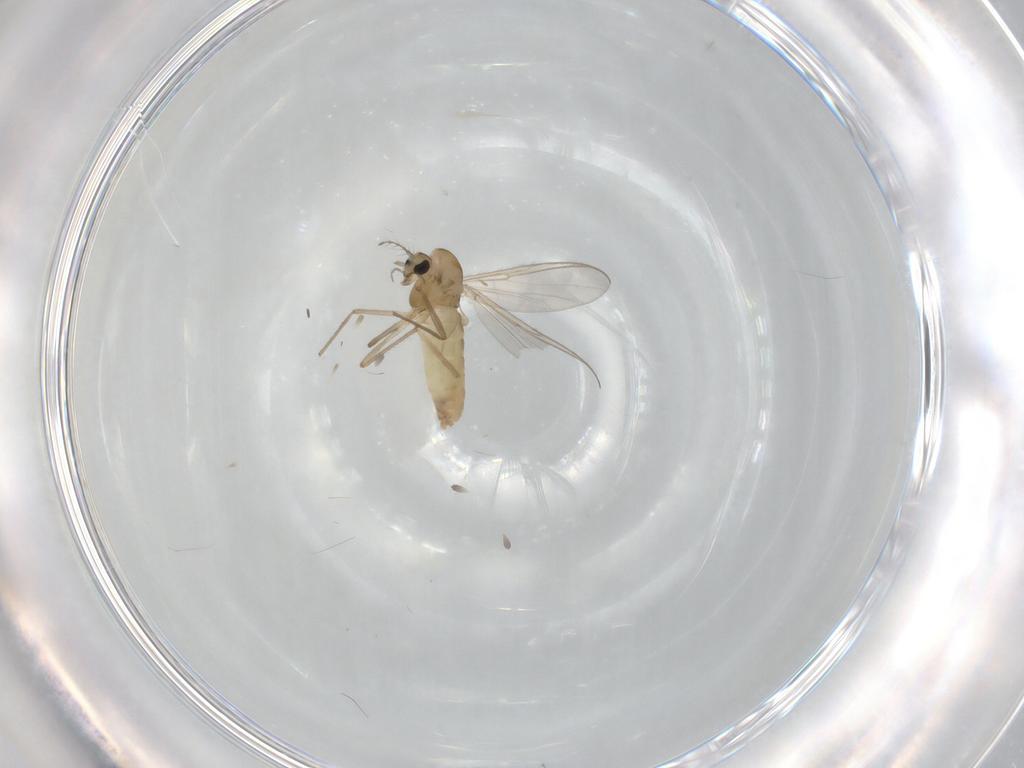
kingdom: Animalia
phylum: Arthropoda
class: Insecta
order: Diptera
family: Chironomidae
